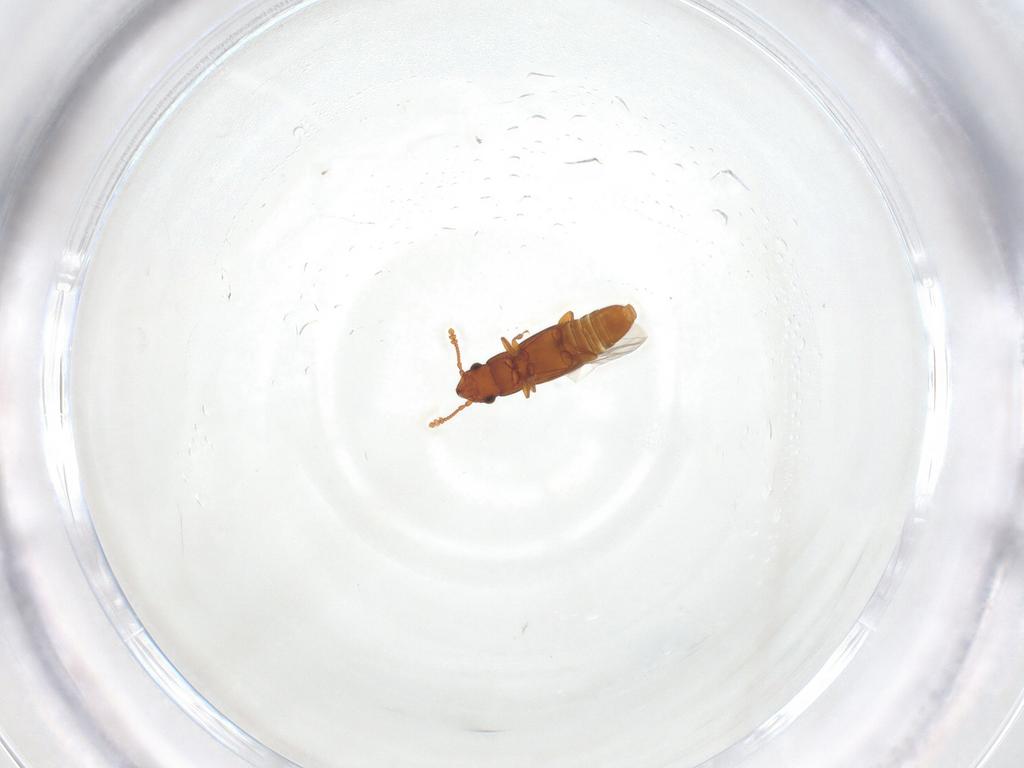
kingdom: Animalia
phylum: Arthropoda
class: Insecta
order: Coleoptera
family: Smicripidae
